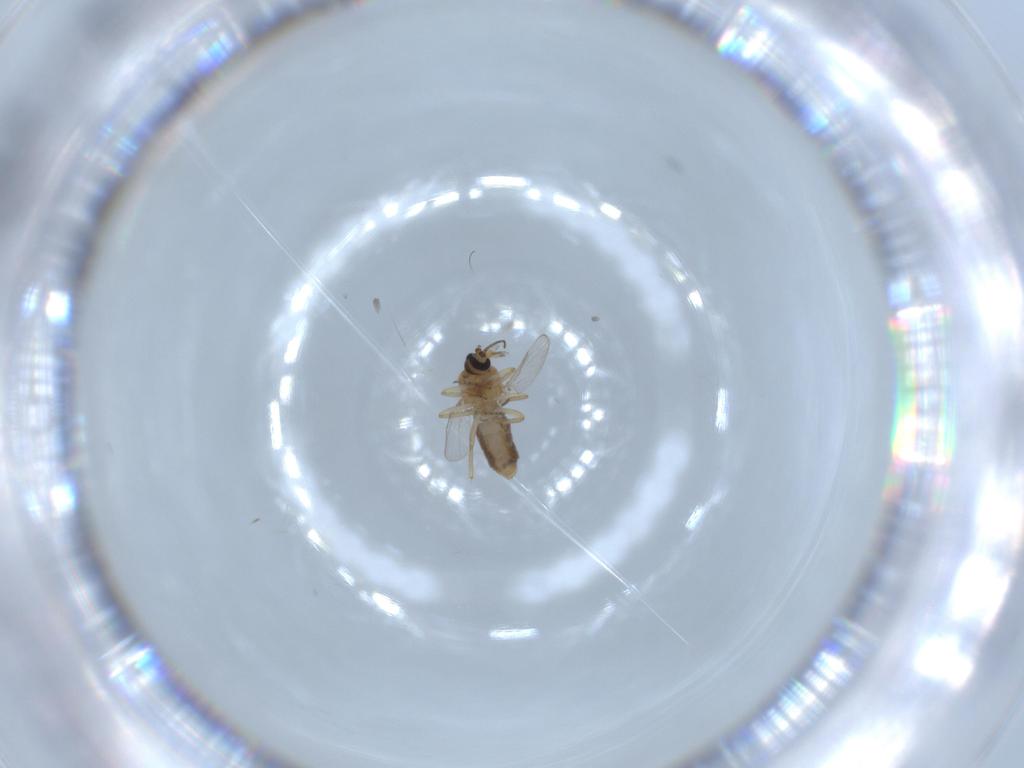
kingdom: Animalia
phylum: Arthropoda
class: Insecta
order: Diptera
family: Ceratopogonidae
